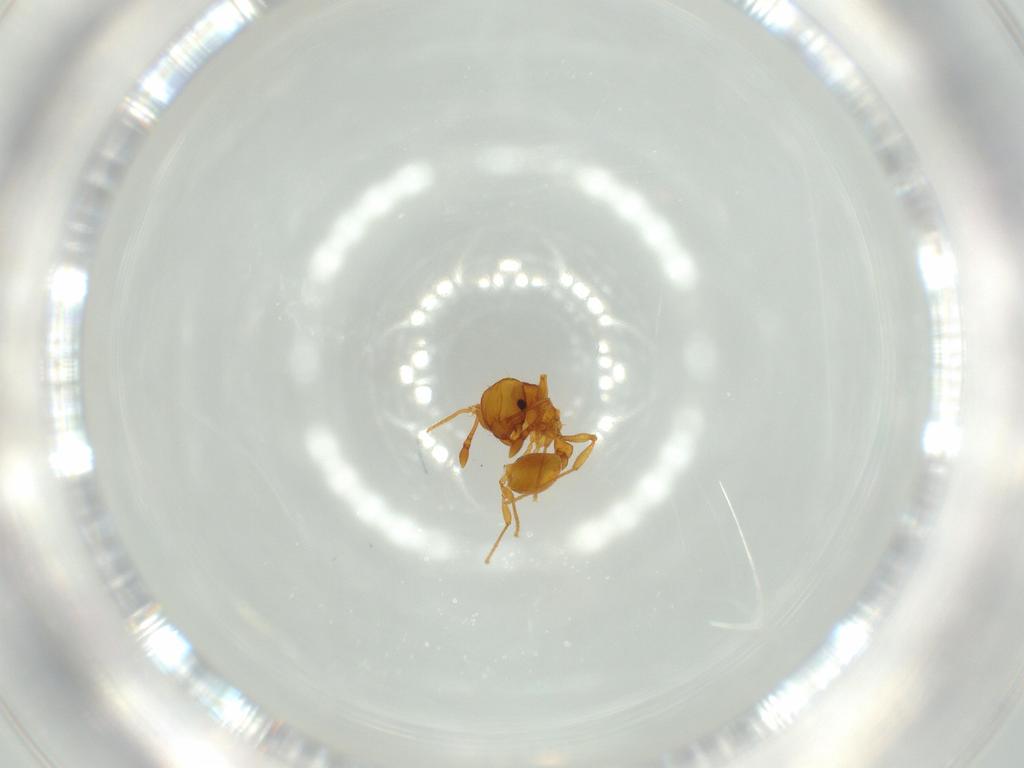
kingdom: Animalia
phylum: Arthropoda
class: Insecta
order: Hymenoptera
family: Formicidae
